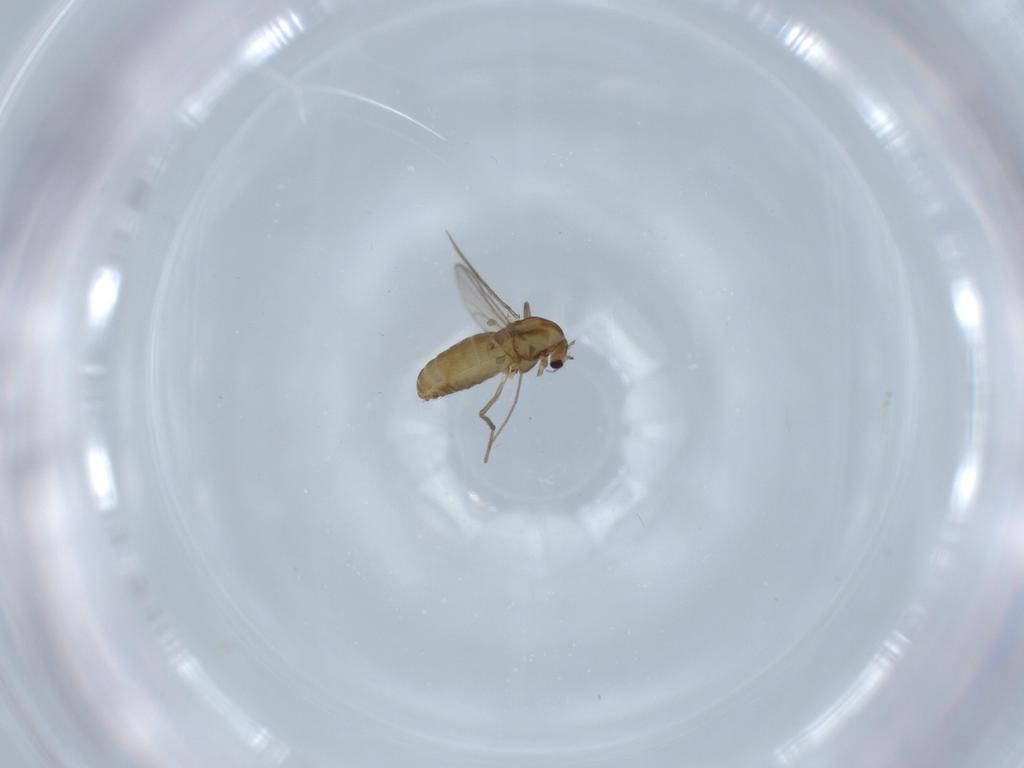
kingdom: Animalia
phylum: Arthropoda
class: Insecta
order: Diptera
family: Chironomidae
